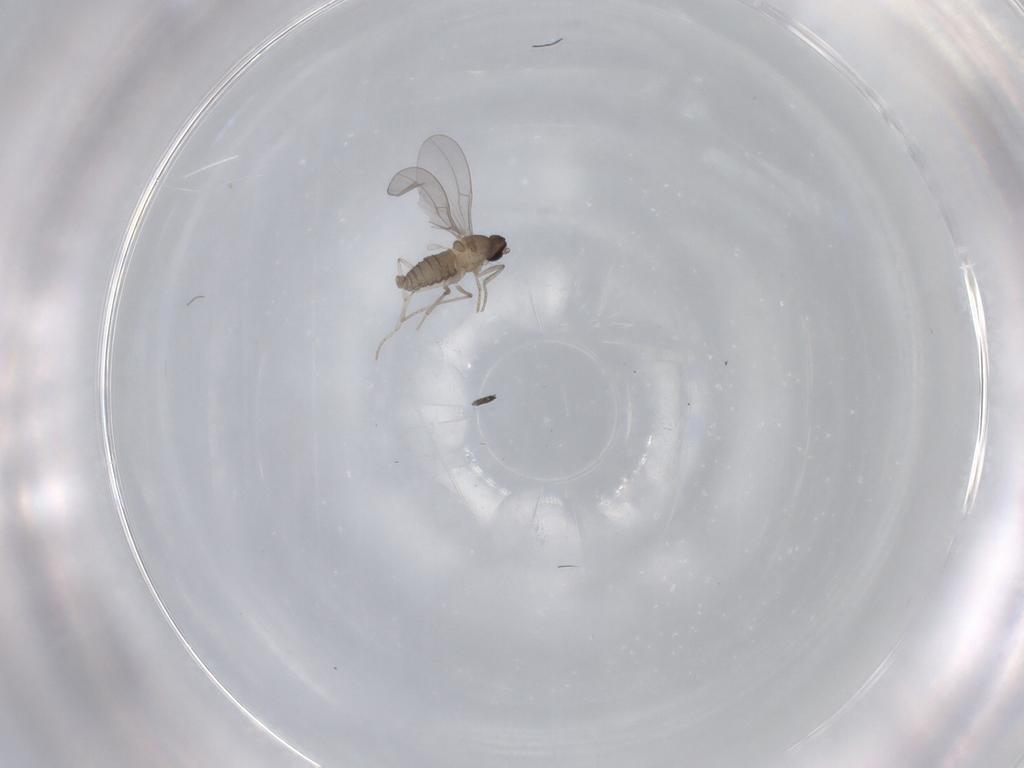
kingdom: Animalia
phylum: Arthropoda
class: Insecta
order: Diptera
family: Cecidomyiidae
